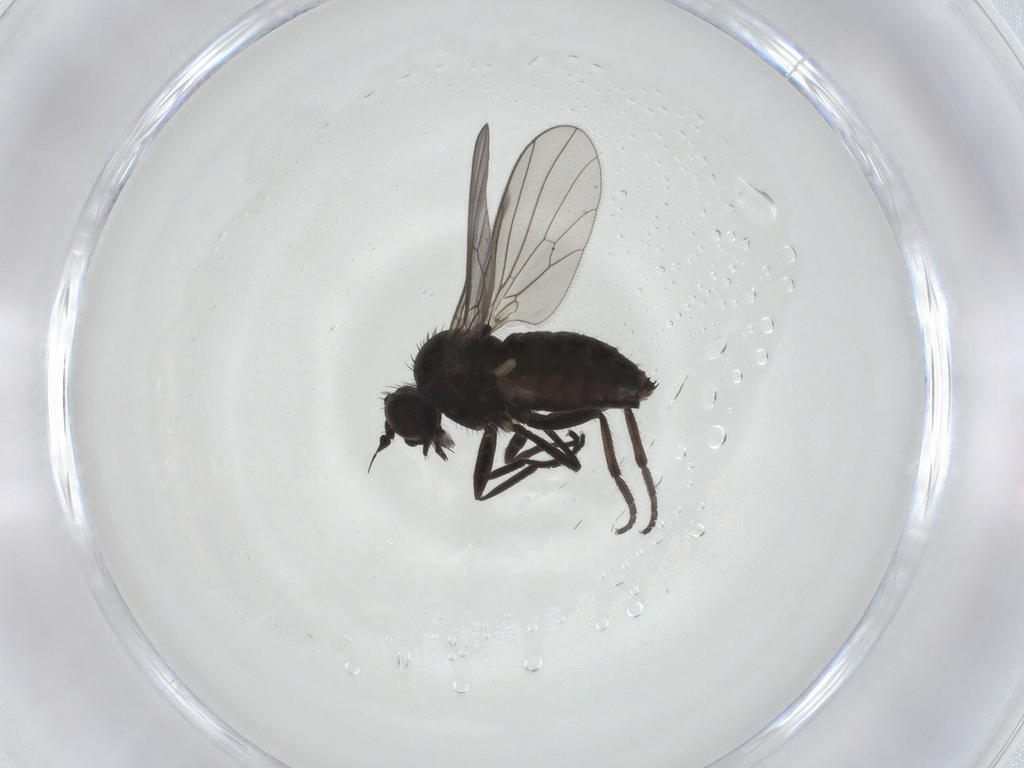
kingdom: Animalia
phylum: Arthropoda
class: Insecta
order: Diptera
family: Dolichopodidae
